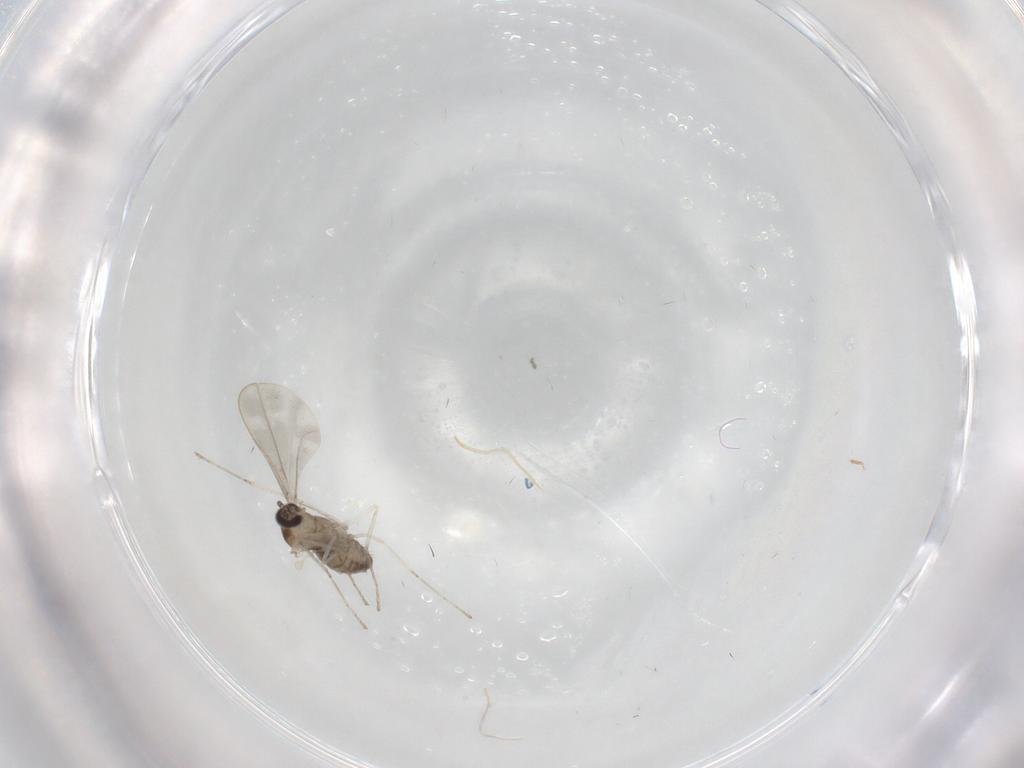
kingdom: Animalia
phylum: Arthropoda
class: Insecta
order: Diptera
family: Cecidomyiidae
